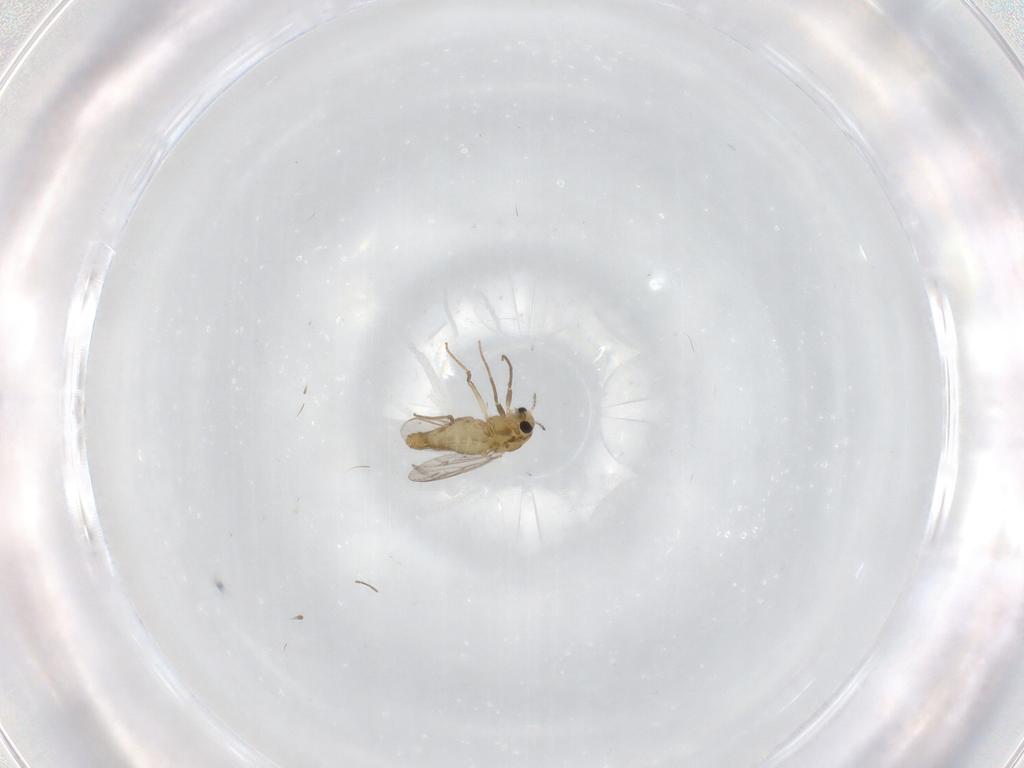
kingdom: Animalia
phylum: Arthropoda
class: Insecta
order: Diptera
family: Chironomidae
